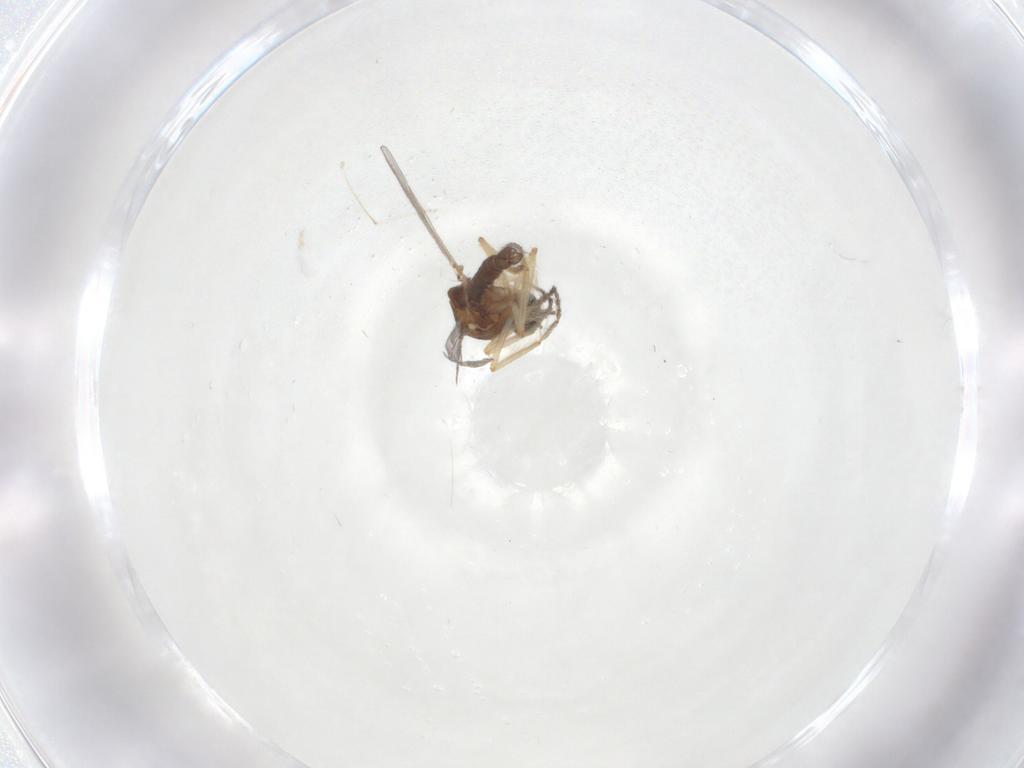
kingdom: Animalia
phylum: Arthropoda
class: Insecta
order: Diptera
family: Ceratopogonidae
